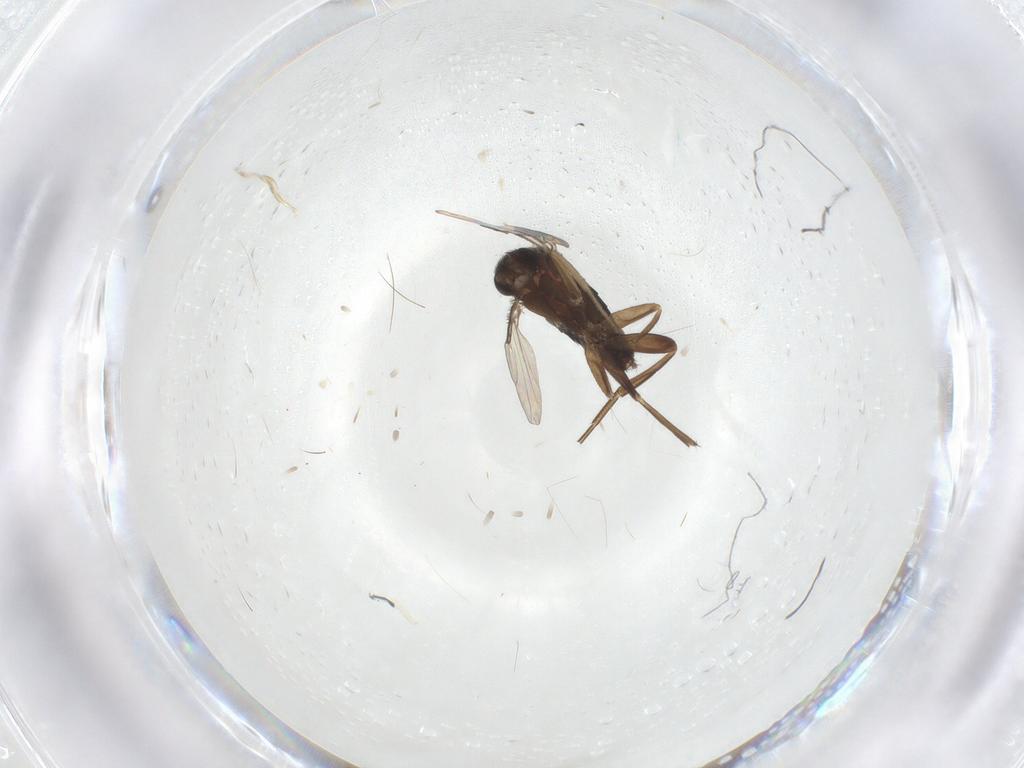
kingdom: Animalia
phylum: Arthropoda
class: Insecta
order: Diptera
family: Phoridae
